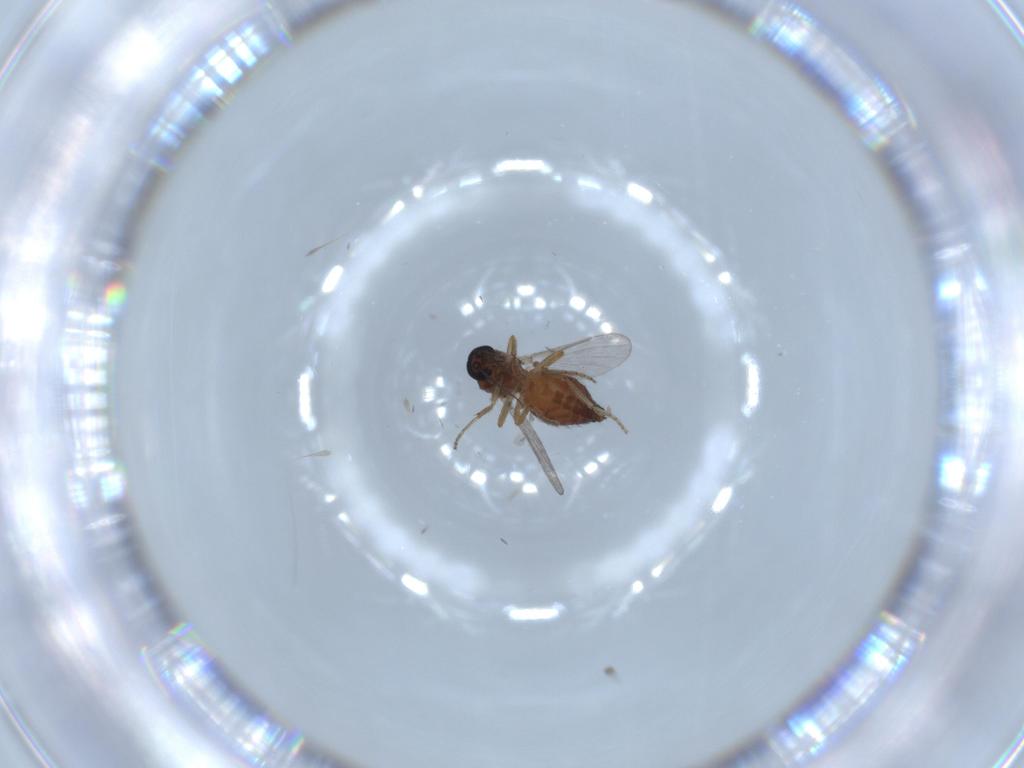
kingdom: Animalia
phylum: Arthropoda
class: Insecta
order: Diptera
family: Ceratopogonidae
